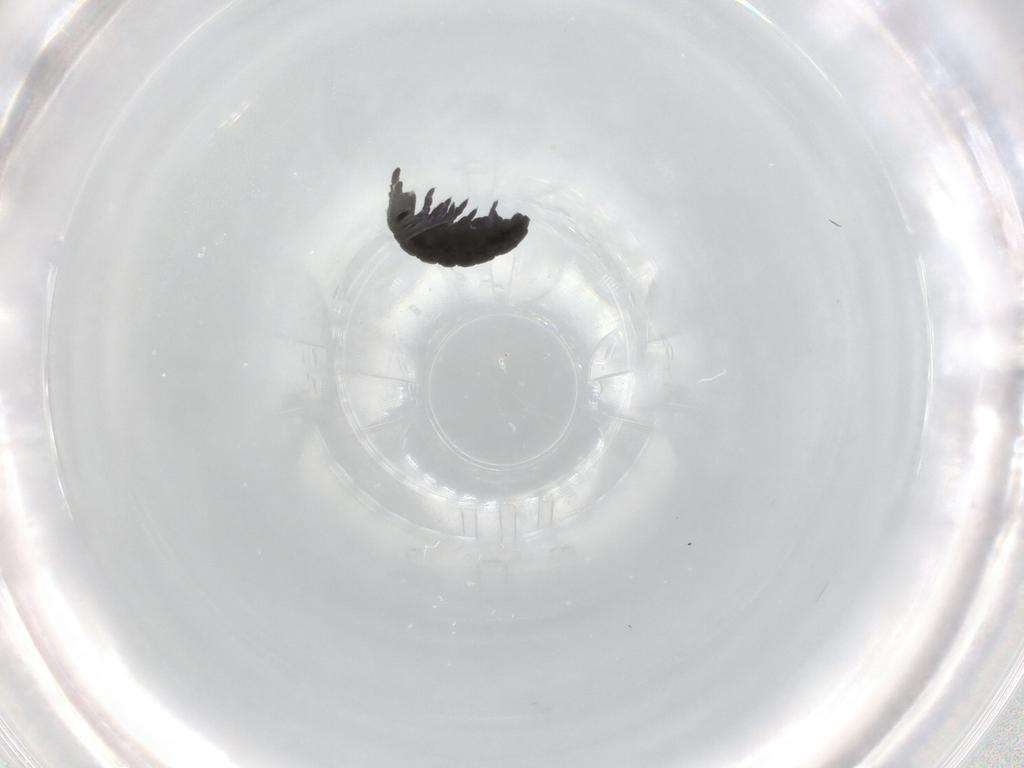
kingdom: Animalia
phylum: Arthropoda
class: Collembola
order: Poduromorpha
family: Hypogastruridae
